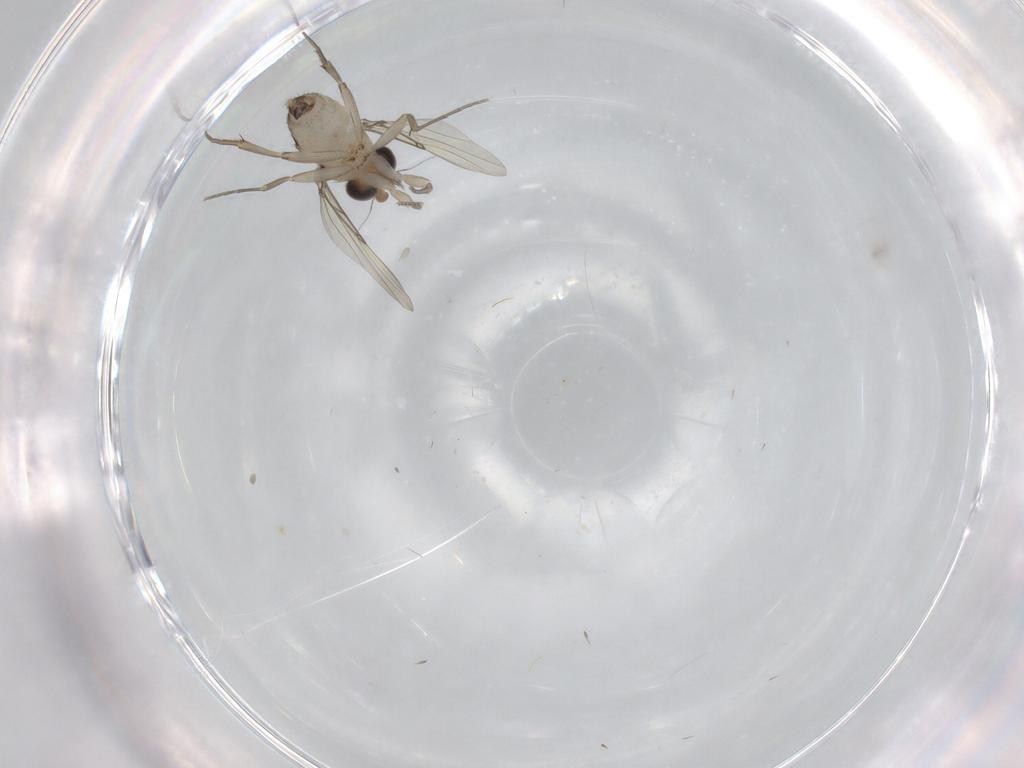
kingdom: Animalia
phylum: Arthropoda
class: Insecta
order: Diptera
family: Phoridae
